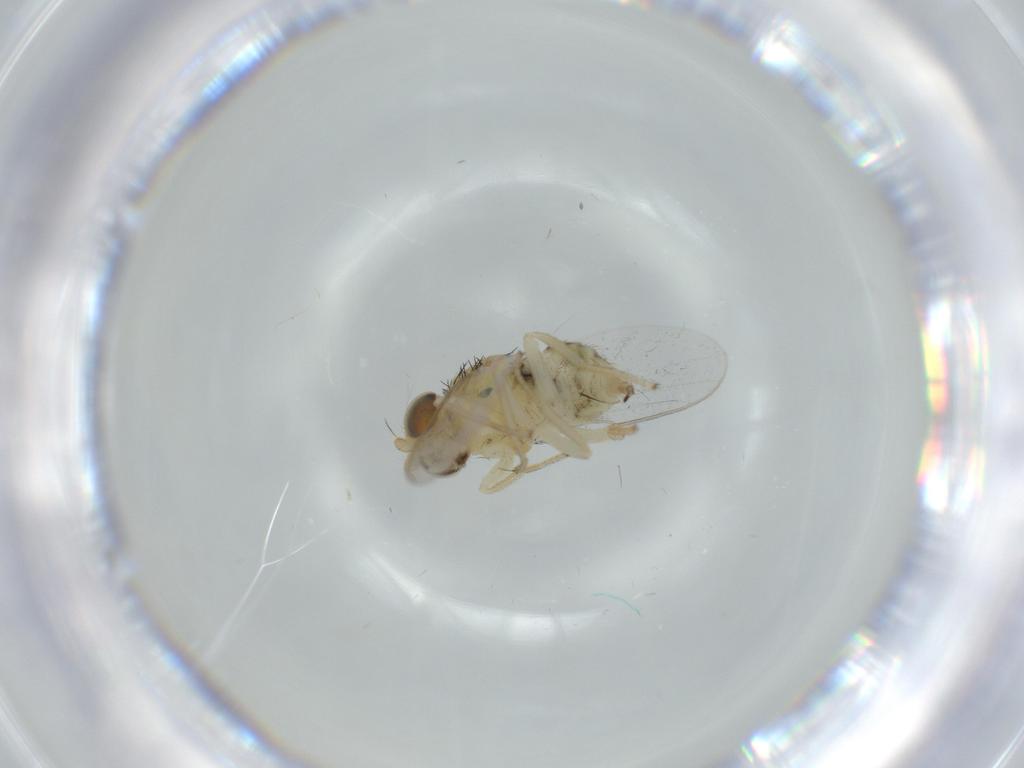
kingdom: Animalia
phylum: Arthropoda
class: Insecta
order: Diptera
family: Chloropidae
